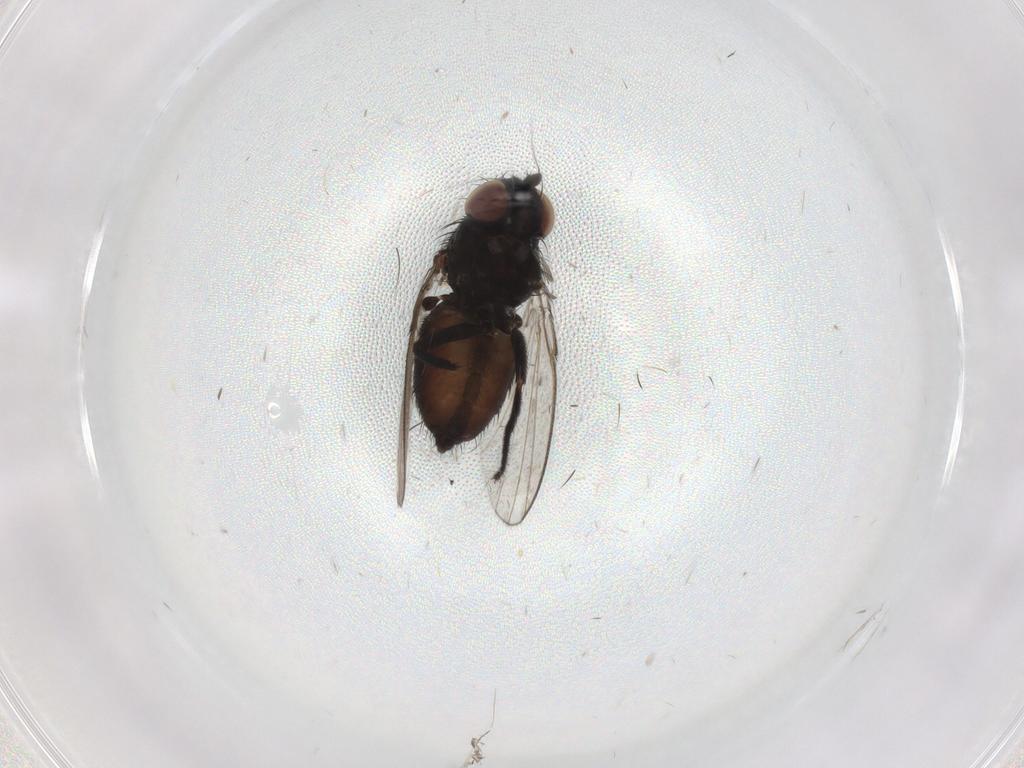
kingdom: Animalia
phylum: Arthropoda
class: Insecta
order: Diptera
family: Milichiidae
